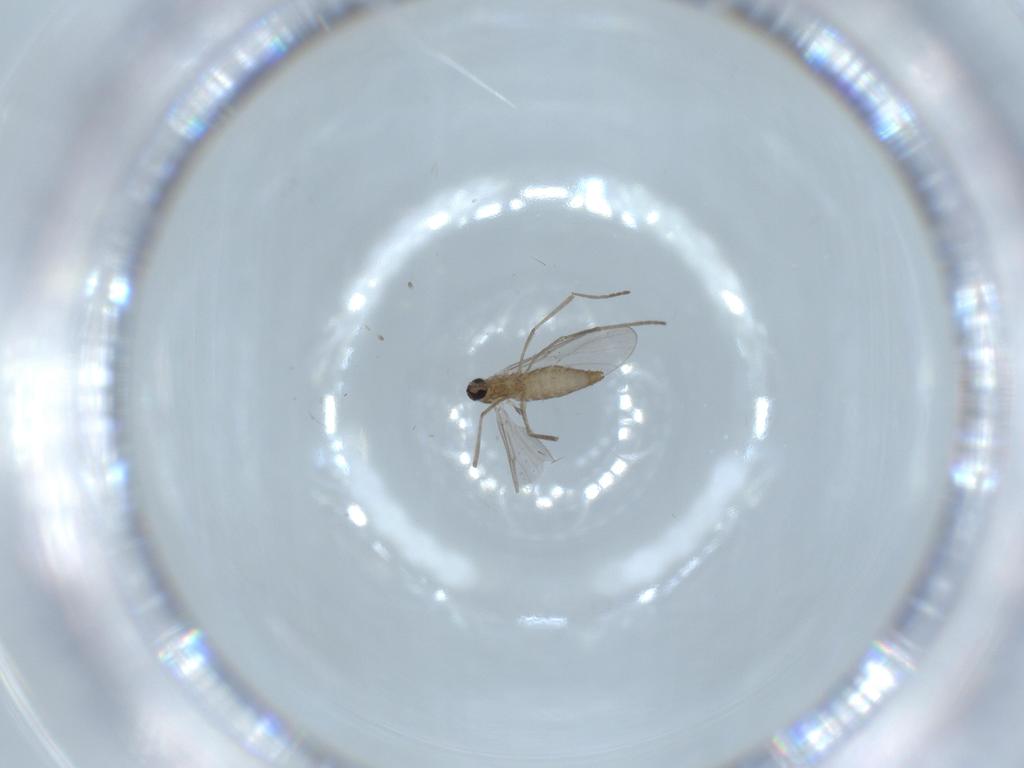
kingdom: Animalia
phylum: Arthropoda
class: Insecta
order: Diptera
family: Cecidomyiidae
